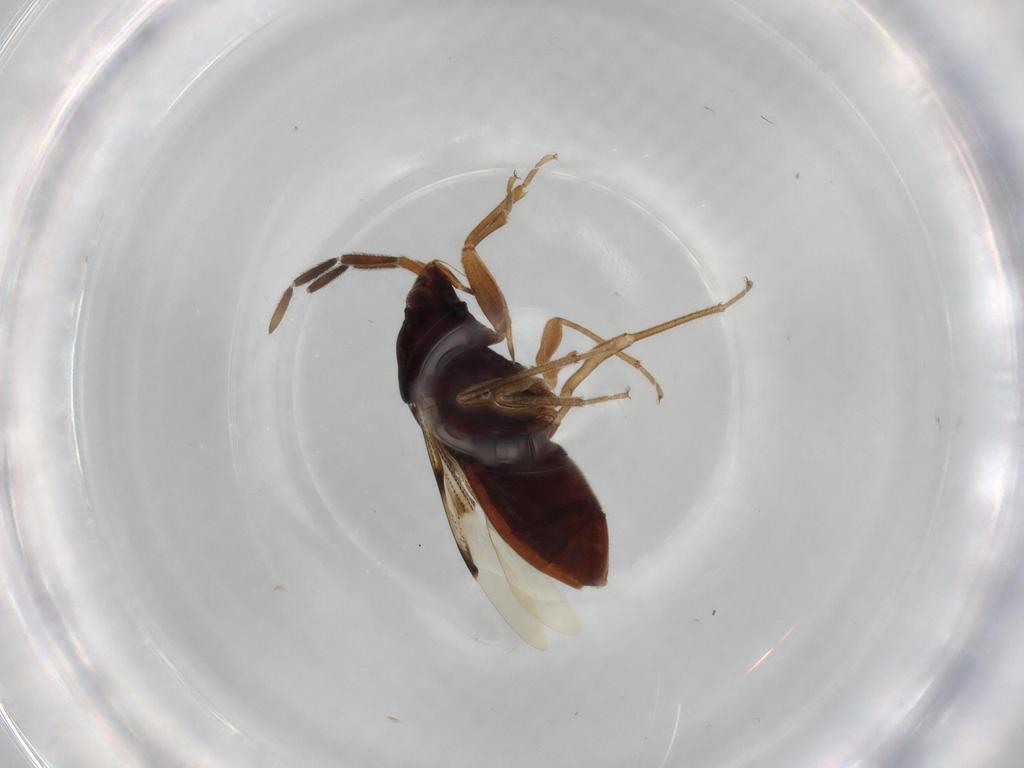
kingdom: Animalia
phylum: Arthropoda
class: Insecta
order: Hemiptera
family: Rhyparochromidae
